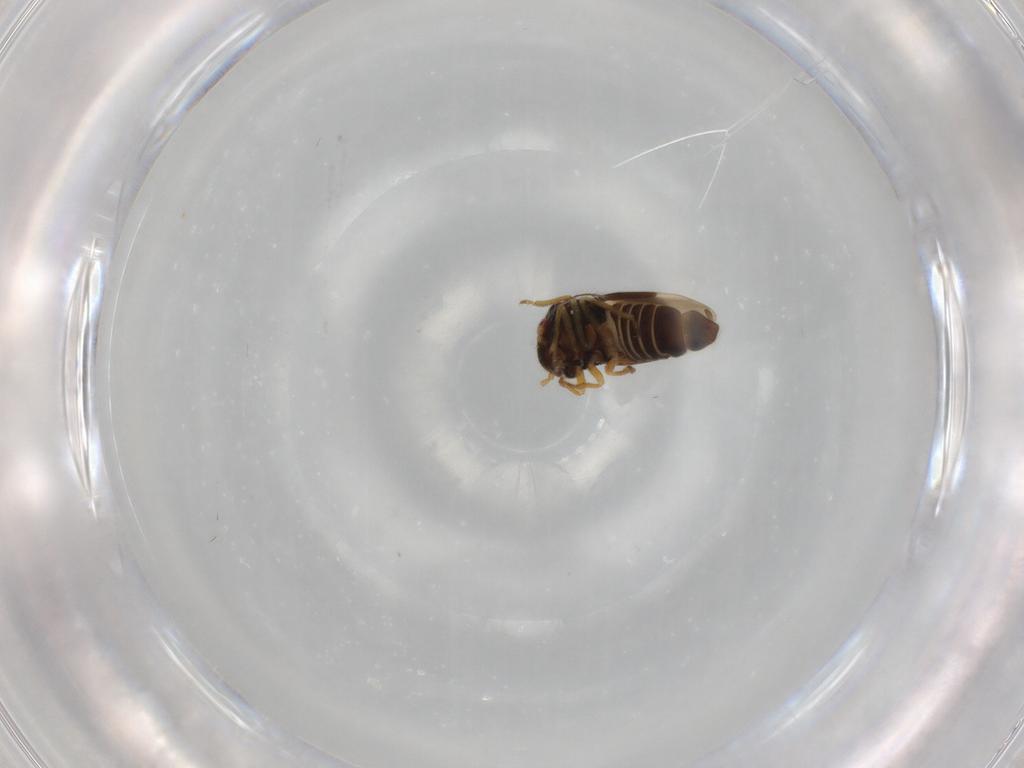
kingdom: Animalia
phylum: Arthropoda
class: Insecta
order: Hemiptera
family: Schizopteridae
